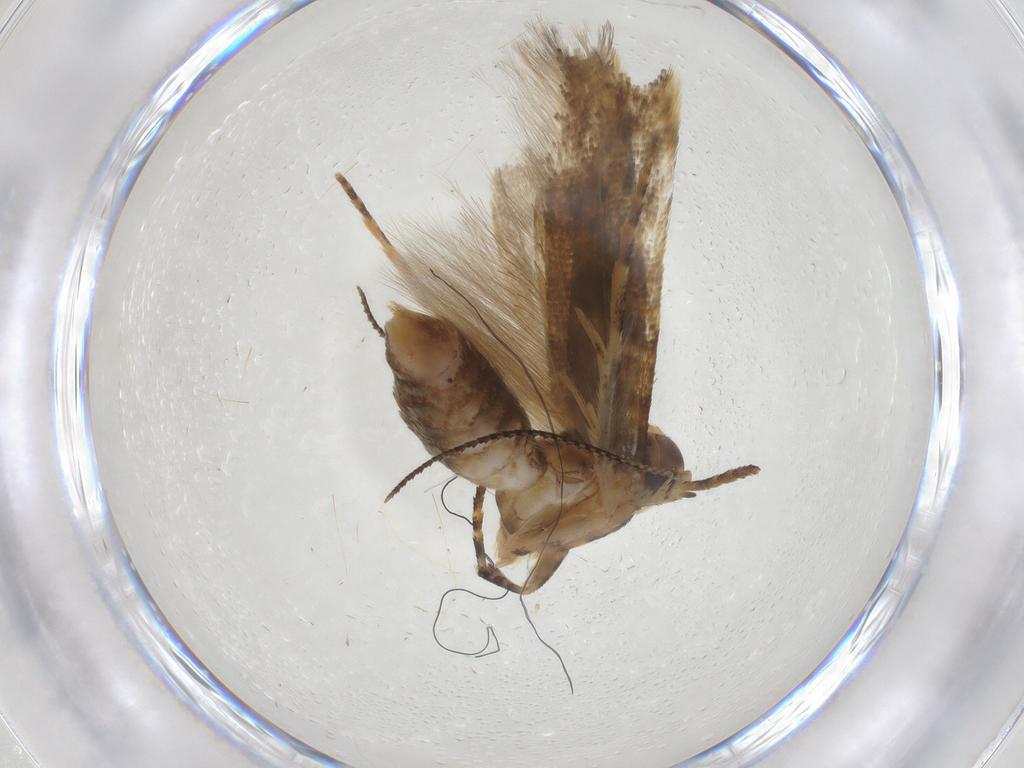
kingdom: Animalia
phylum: Arthropoda
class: Insecta
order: Lepidoptera
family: Gelechiidae
